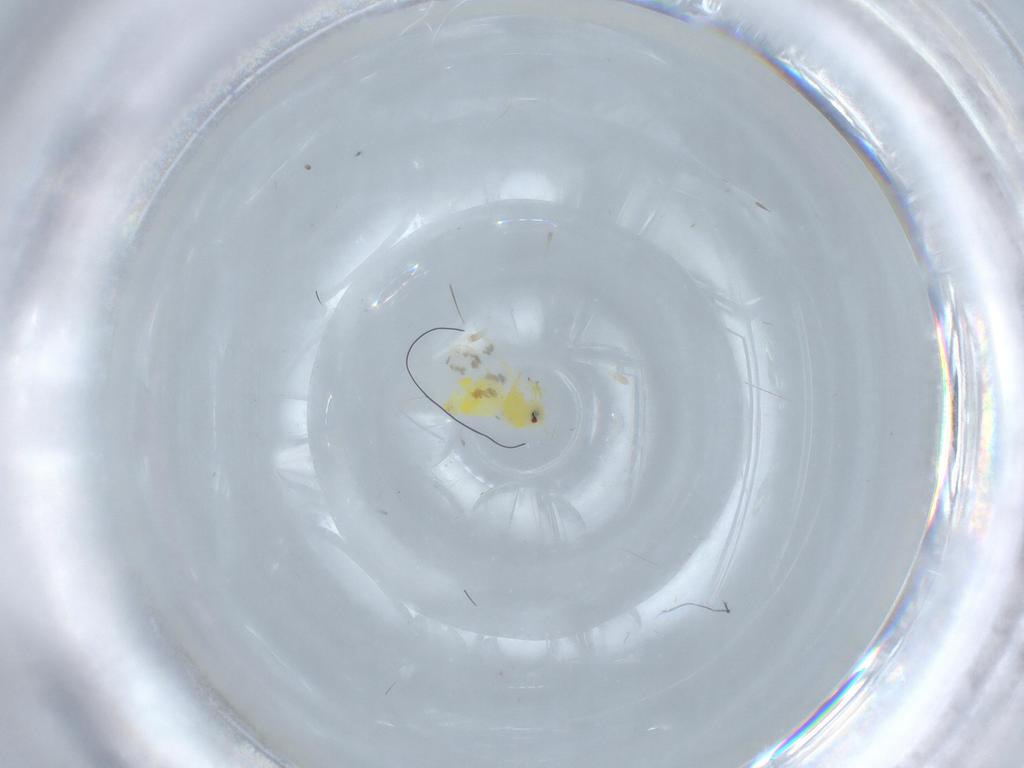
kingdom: Animalia
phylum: Arthropoda
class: Insecta
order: Hemiptera
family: Aleyrodidae
